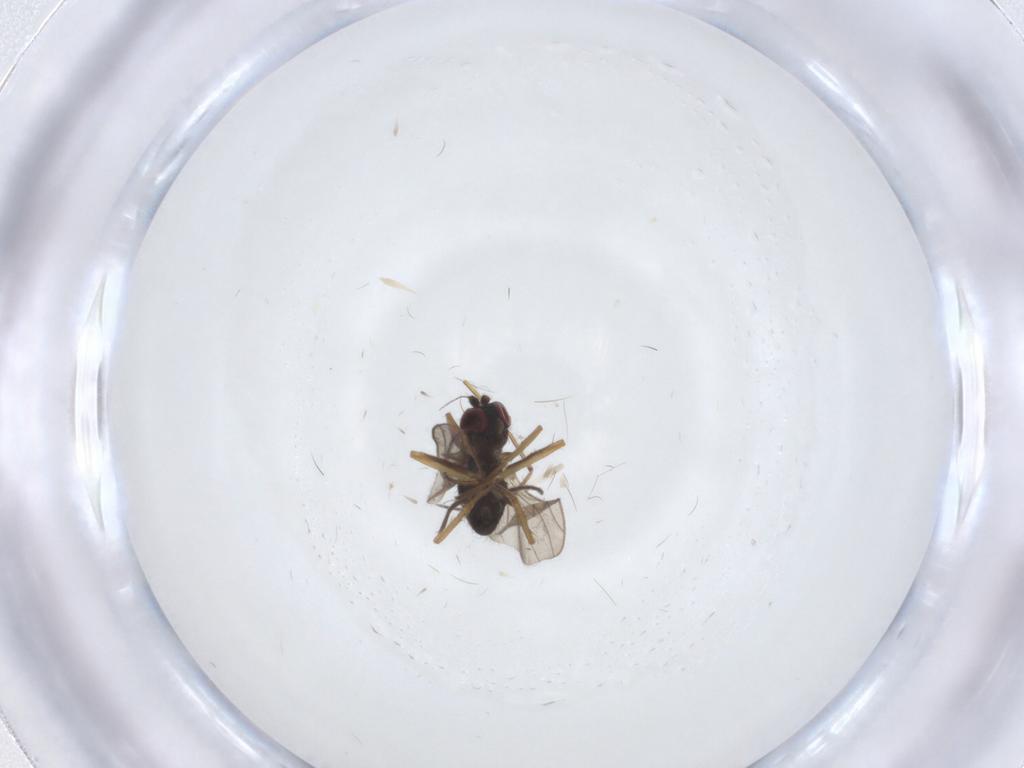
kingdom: Animalia
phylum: Arthropoda
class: Insecta
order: Diptera
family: Sciaridae
